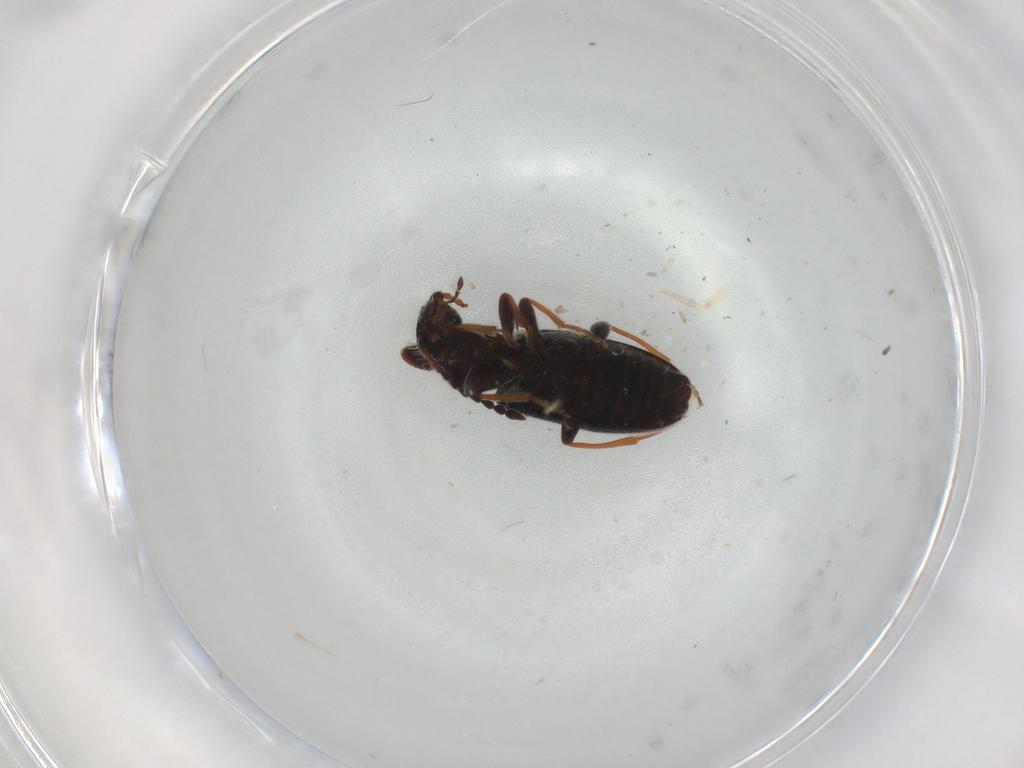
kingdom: Animalia
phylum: Arthropoda
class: Insecta
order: Coleoptera
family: Anthicidae
